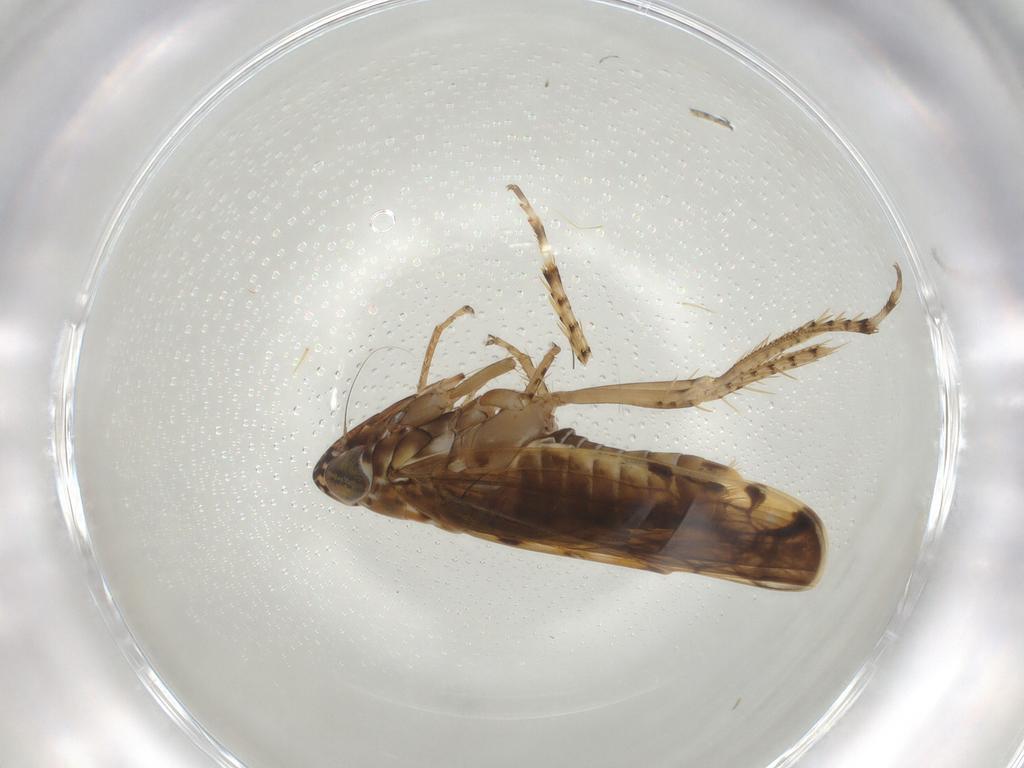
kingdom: Animalia
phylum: Arthropoda
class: Insecta
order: Hemiptera
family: Cicadellidae
